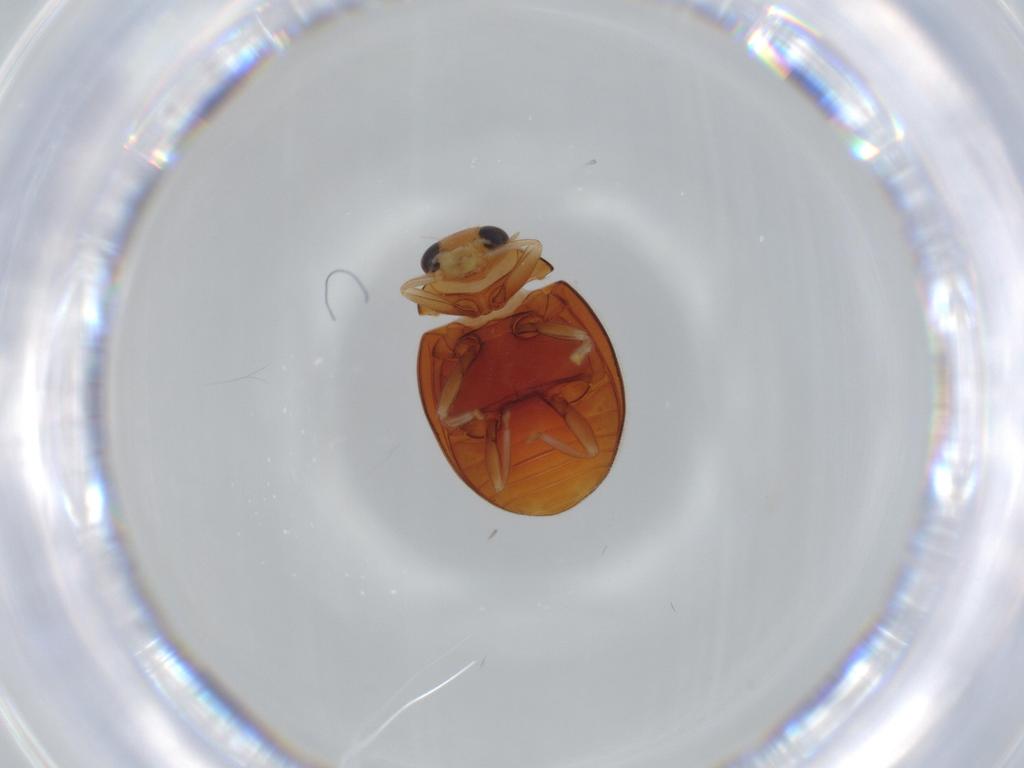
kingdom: Animalia
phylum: Arthropoda
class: Insecta
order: Coleoptera
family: Coccinellidae
